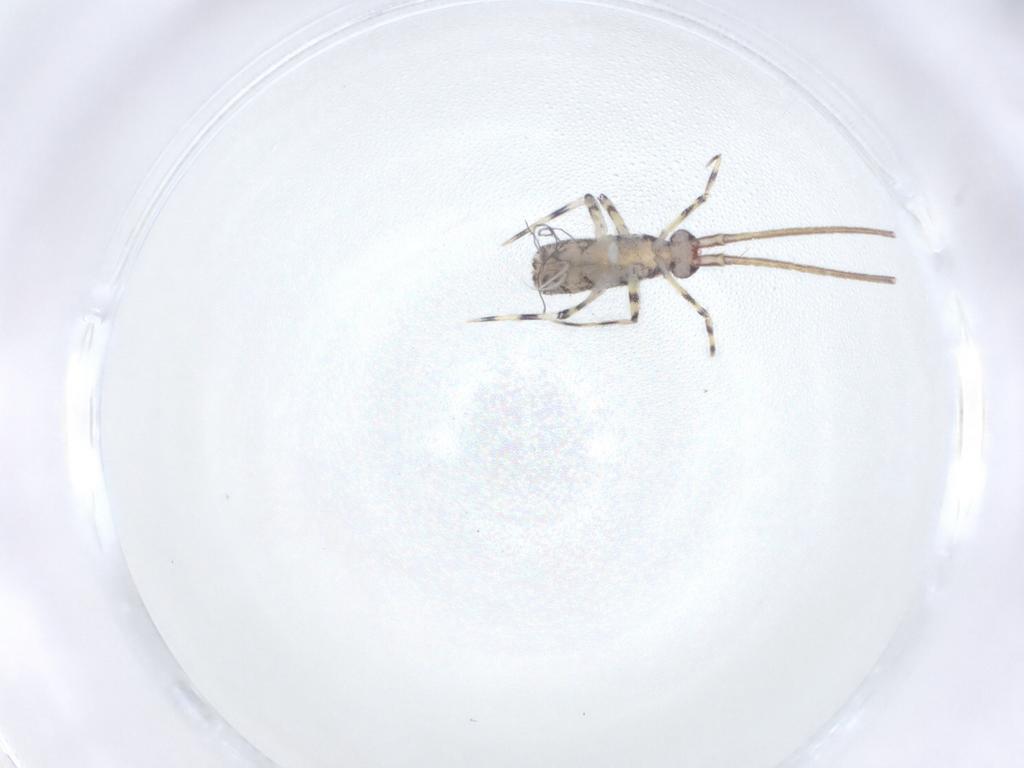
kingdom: Animalia
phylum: Arthropoda
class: Collembola
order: Entomobryomorpha
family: Entomobryidae
